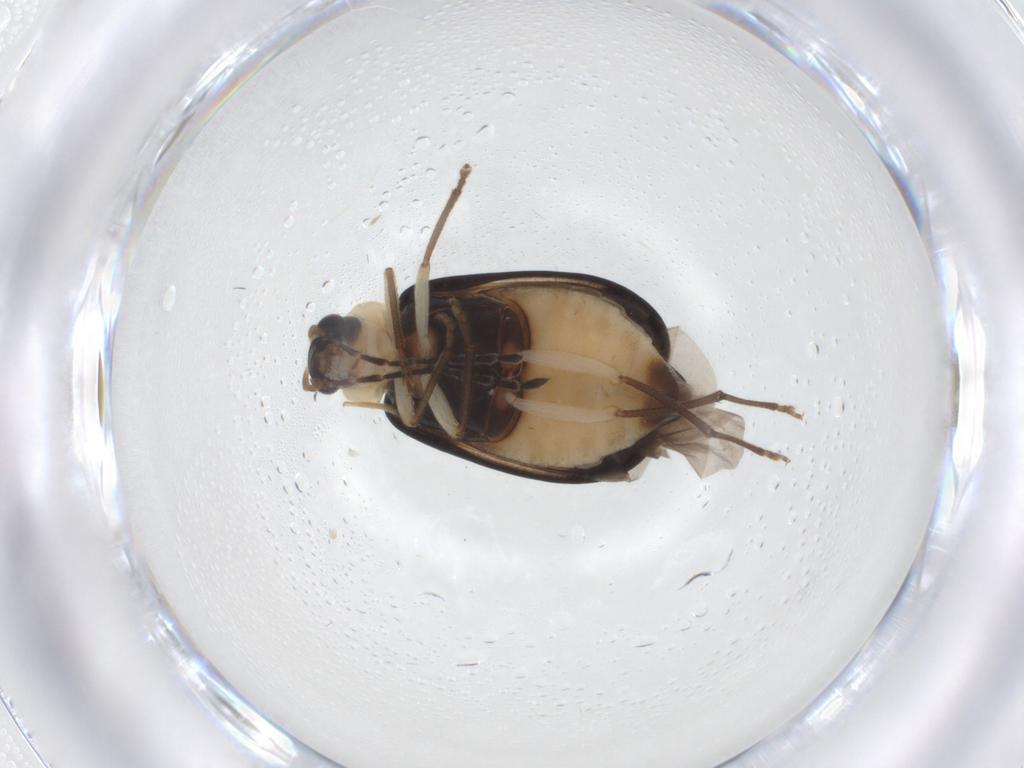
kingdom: Animalia
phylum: Arthropoda
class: Insecta
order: Coleoptera
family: Chrysomelidae
